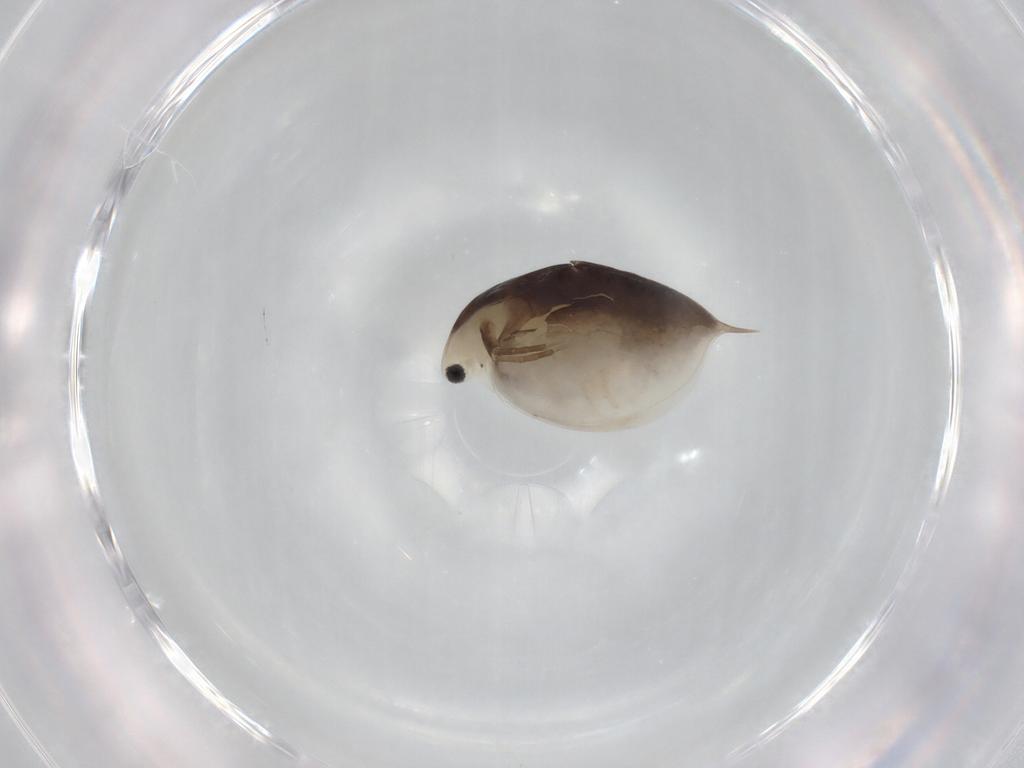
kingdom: Animalia
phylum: Arthropoda
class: Branchiopoda
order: Diplostraca
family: Daphniidae
